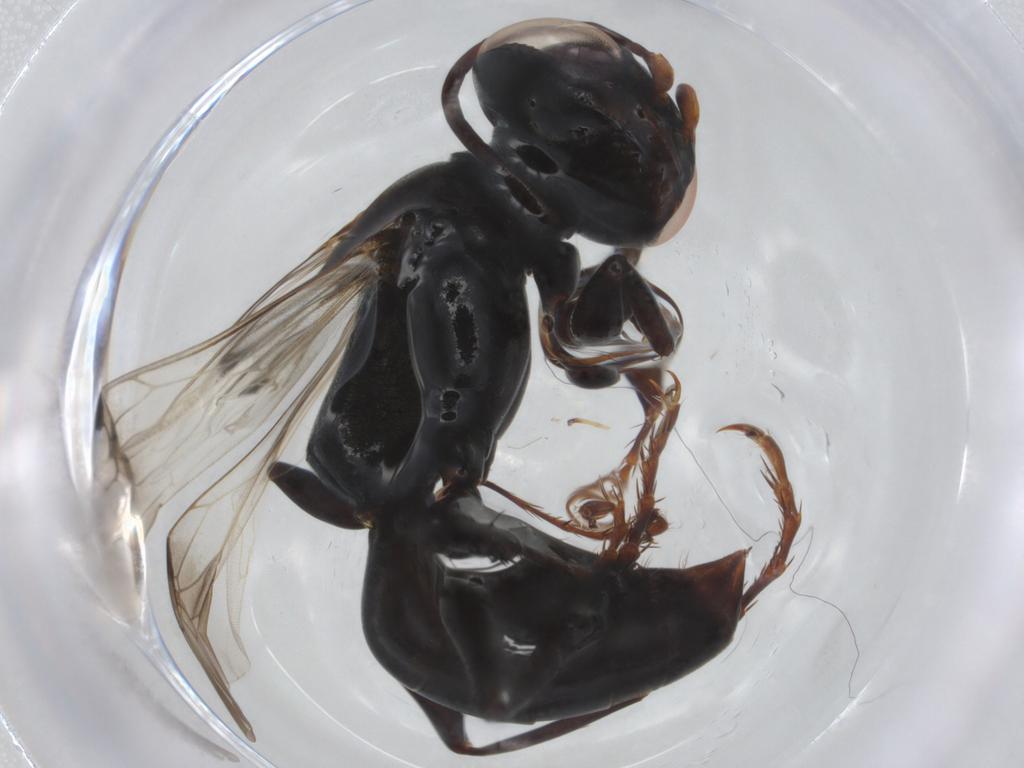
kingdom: Animalia
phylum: Arthropoda
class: Insecta
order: Hymenoptera
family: Crabronidae
